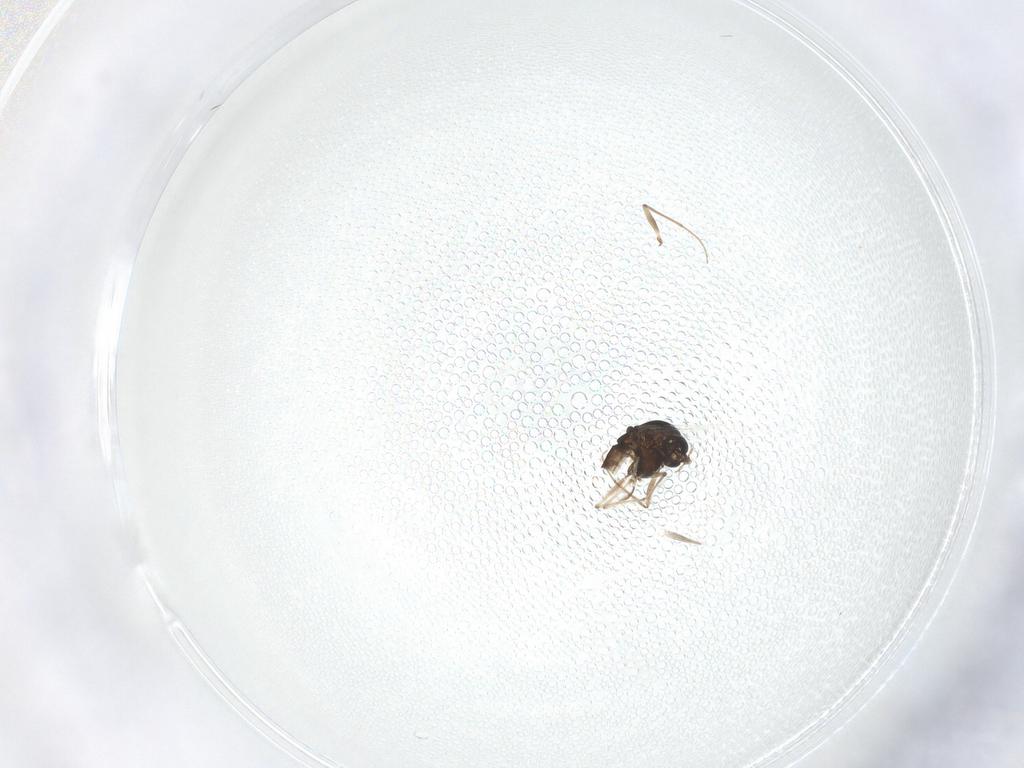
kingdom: Animalia
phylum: Arthropoda
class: Insecta
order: Diptera
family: Chironomidae
